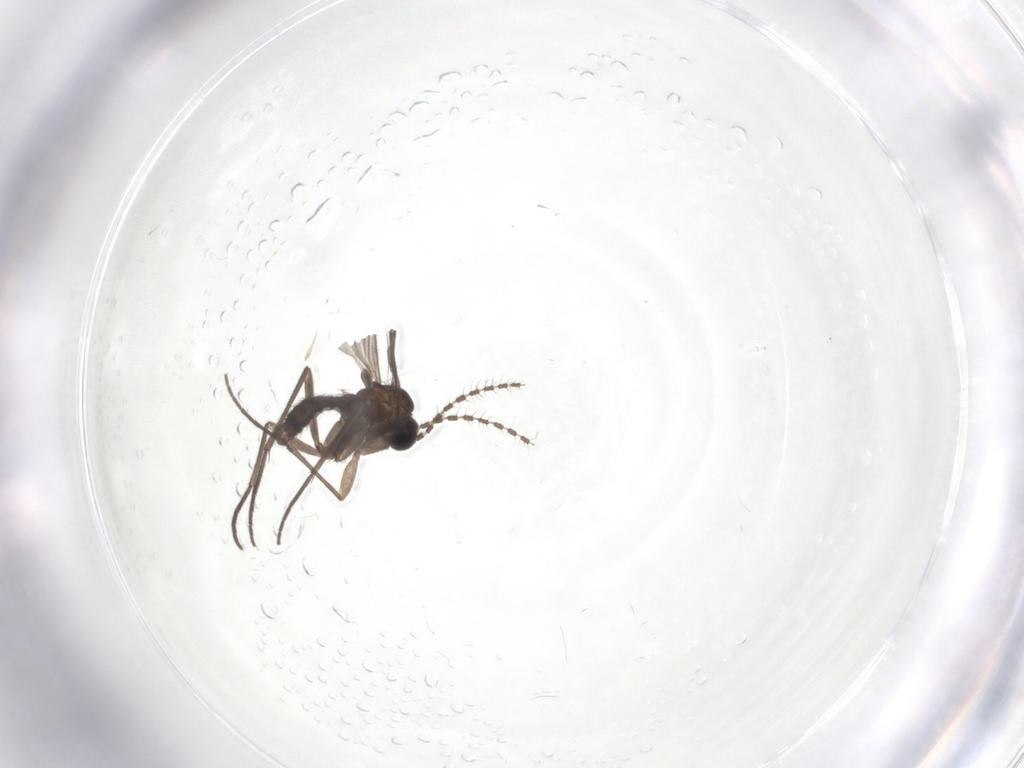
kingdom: Animalia
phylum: Arthropoda
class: Insecta
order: Diptera
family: Sciaridae
